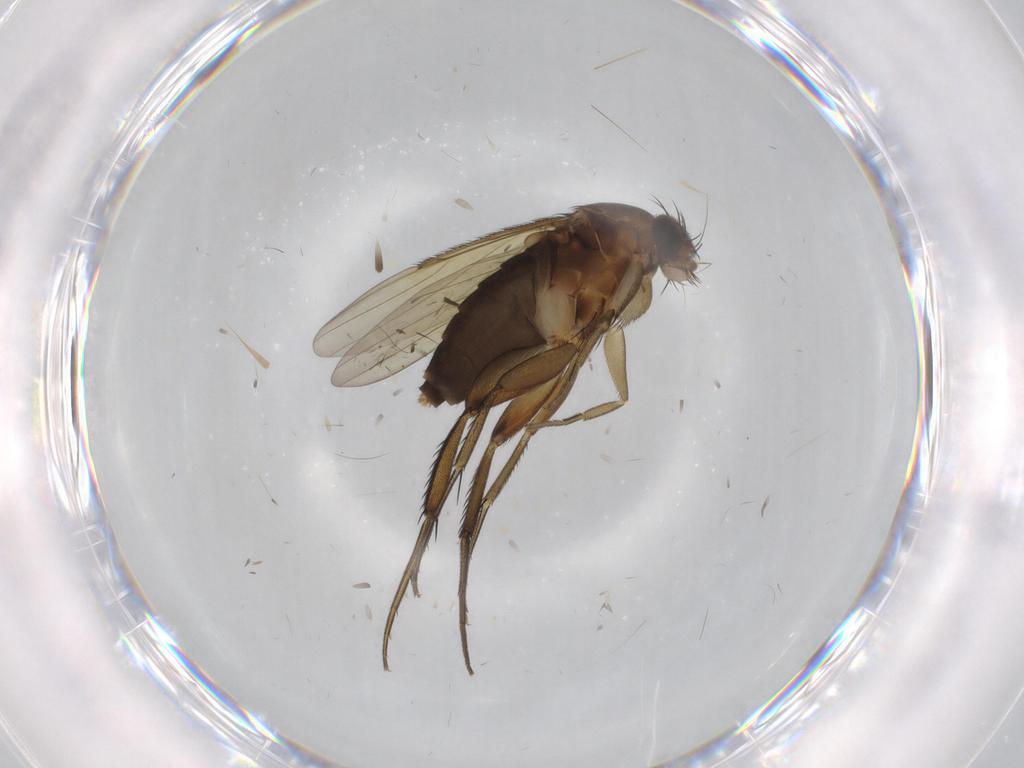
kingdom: Animalia
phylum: Arthropoda
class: Insecta
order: Diptera
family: Phoridae
